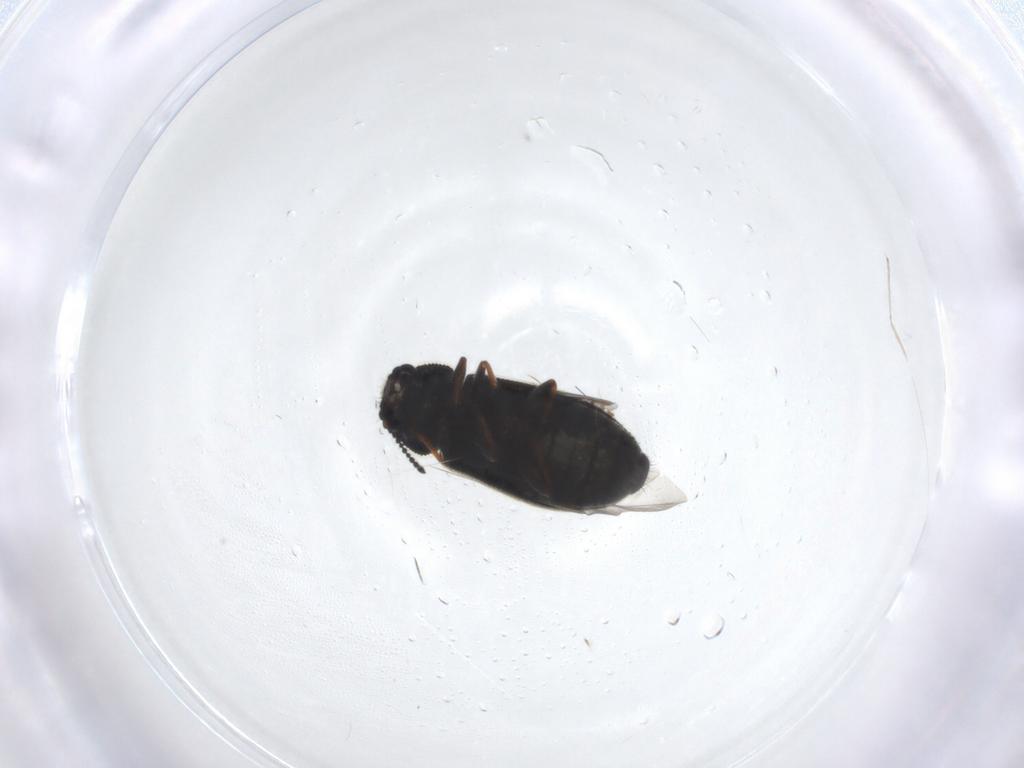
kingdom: Animalia
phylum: Arthropoda
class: Insecta
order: Coleoptera
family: Melyridae
